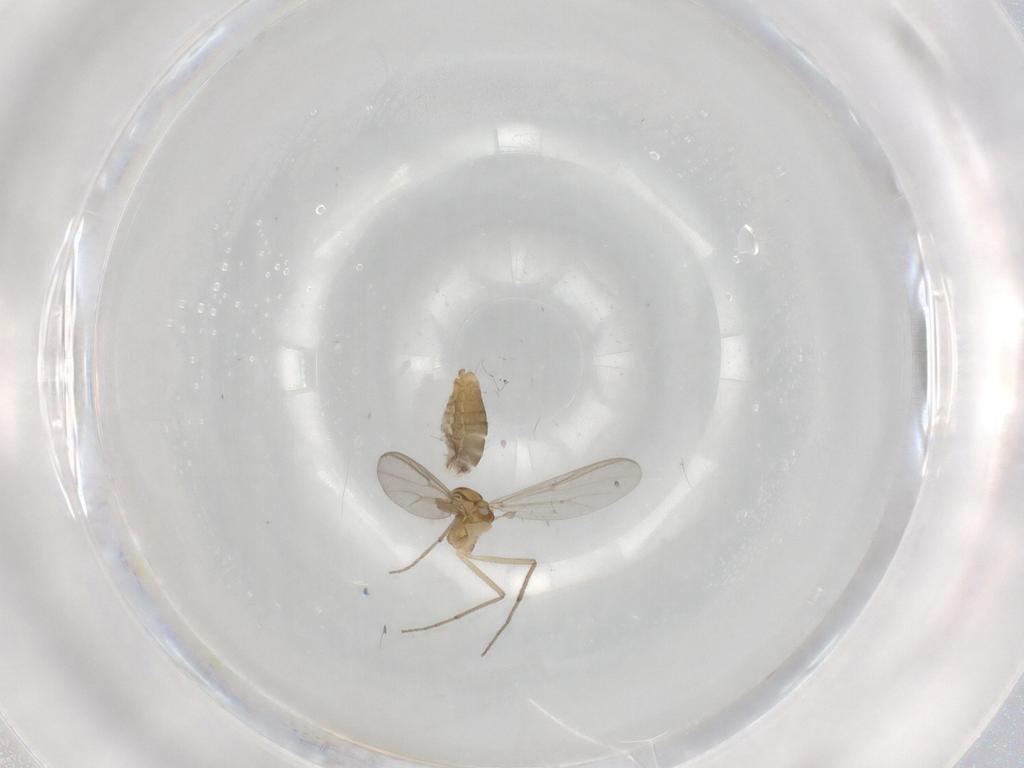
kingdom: Animalia
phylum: Arthropoda
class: Insecta
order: Diptera
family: Chironomidae
